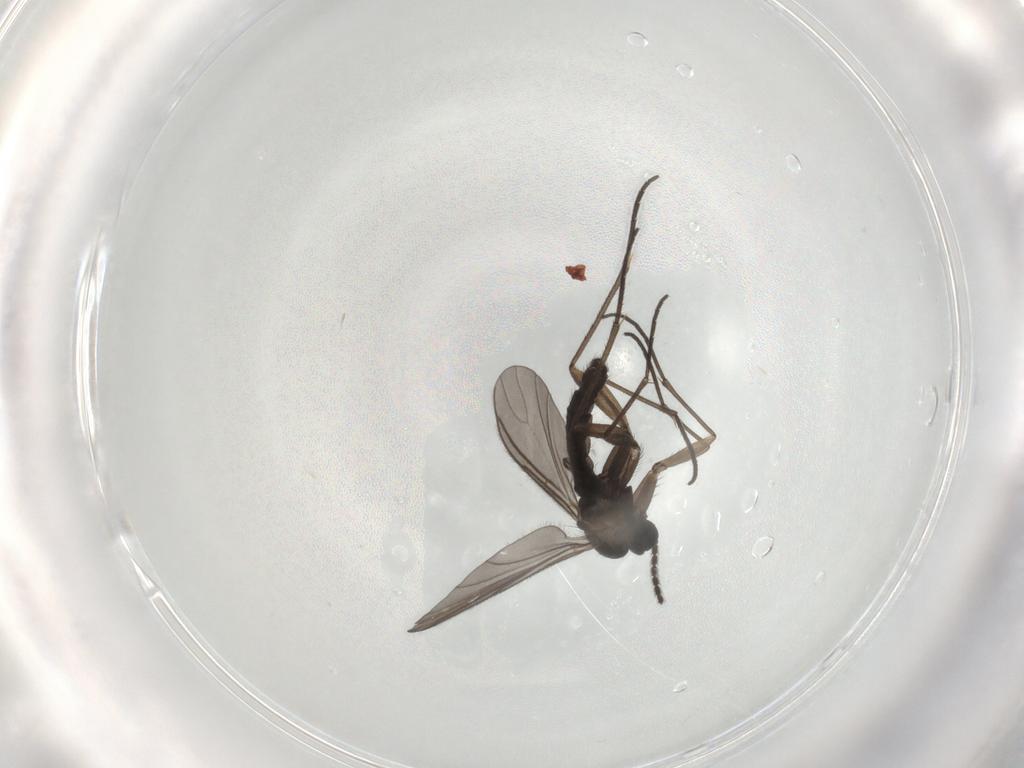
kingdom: Animalia
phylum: Arthropoda
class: Insecta
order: Diptera
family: Sciaridae
